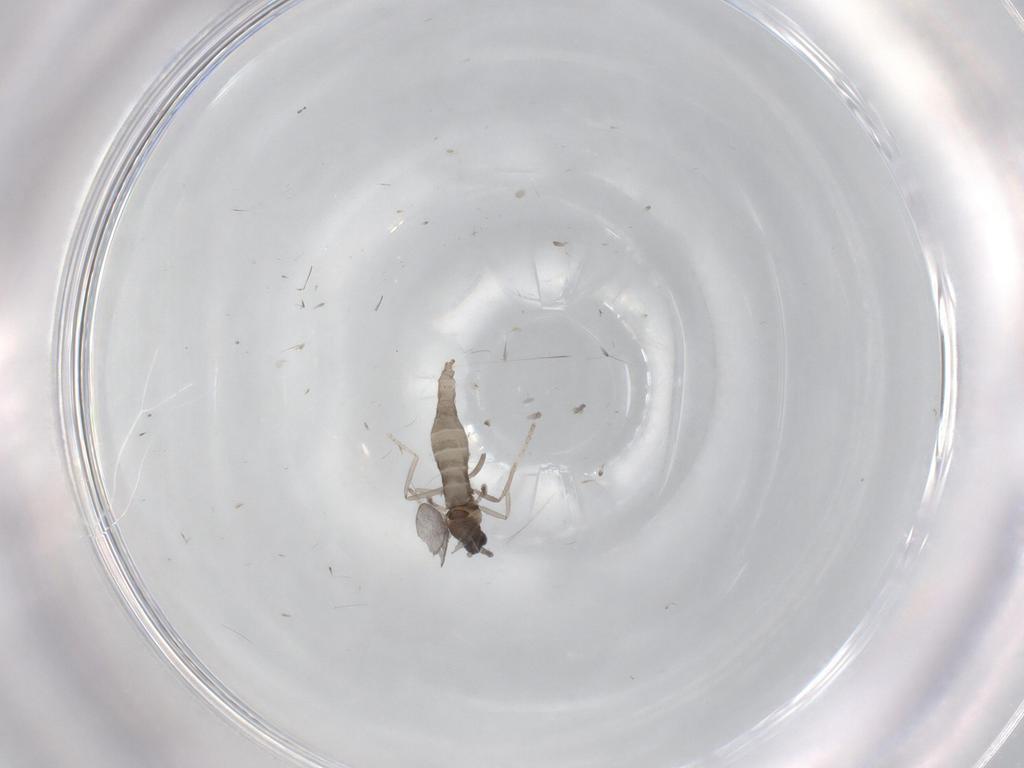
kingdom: Animalia
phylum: Arthropoda
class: Insecta
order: Diptera
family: Cecidomyiidae
